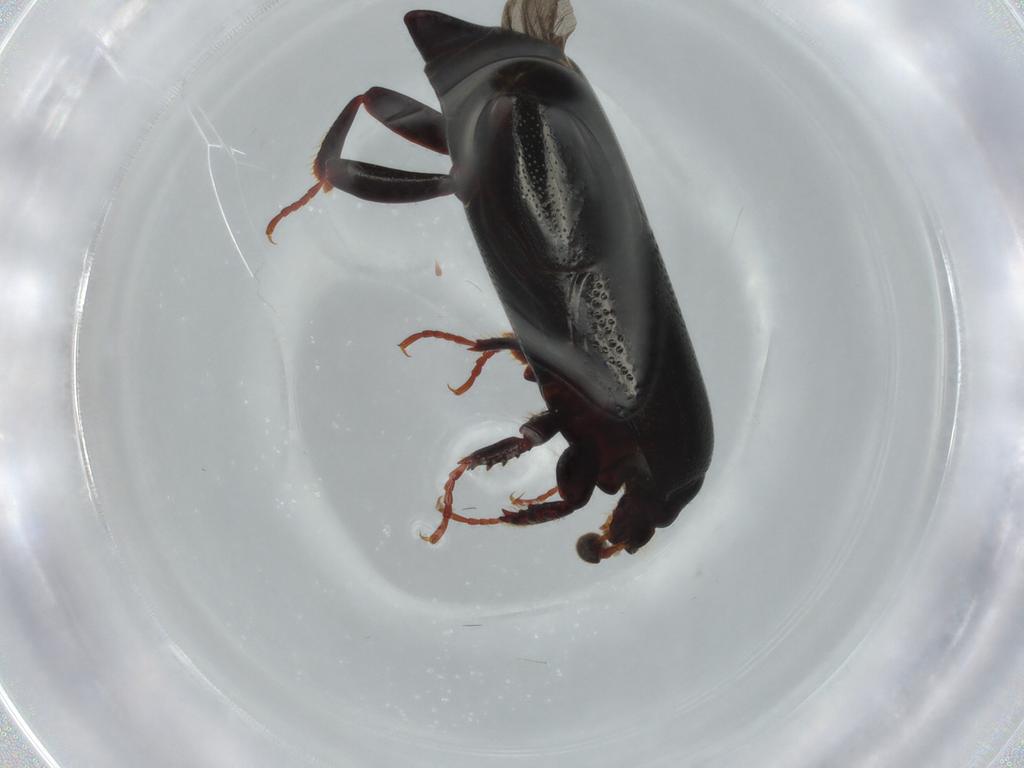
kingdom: Animalia
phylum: Arthropoda
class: Insecta
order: Coleoptera
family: Histeridae
